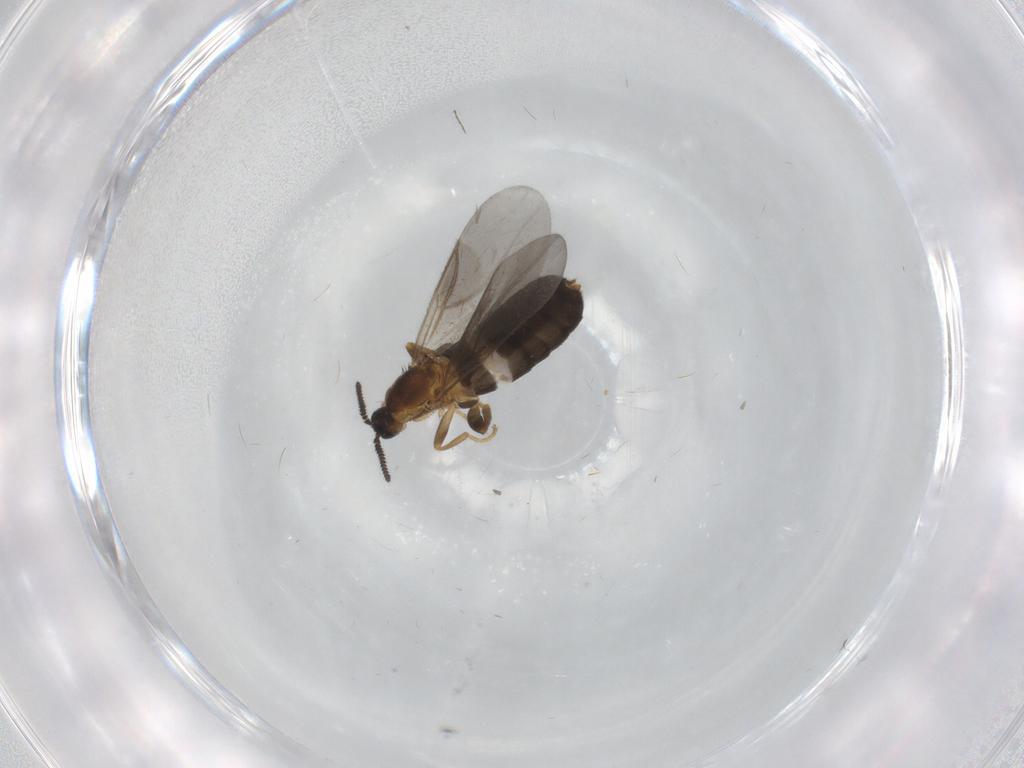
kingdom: Animalia
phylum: Arthropoda
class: Insecta
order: Diptera
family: Scatopsidae
